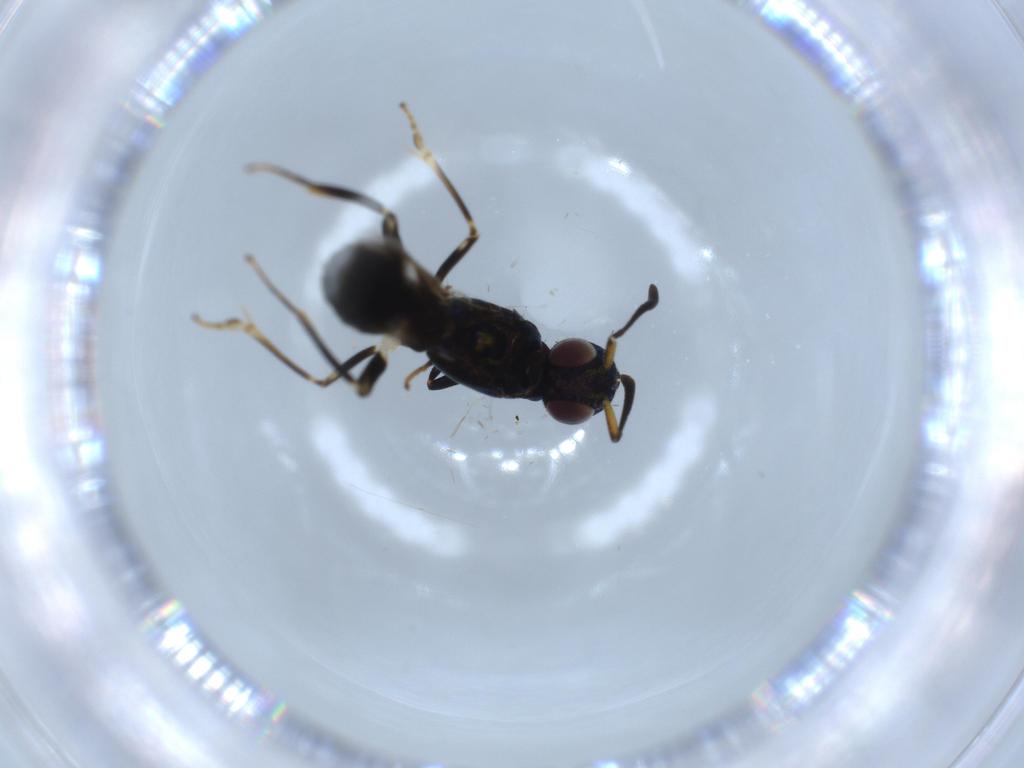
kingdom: Animalia
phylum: Arthropoda
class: Insecta
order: Hymenoptera
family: Eupelmidae
